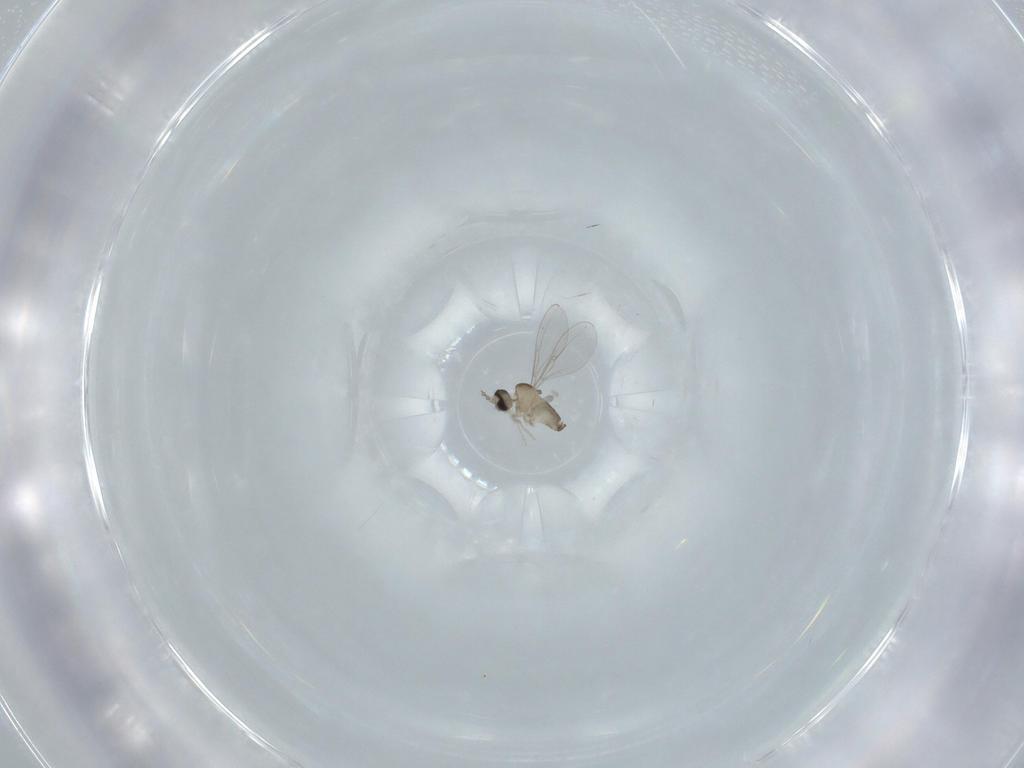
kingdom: Animalia
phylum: Arthropoda
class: Insecta
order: Diptera
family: Cecidomyiidae
